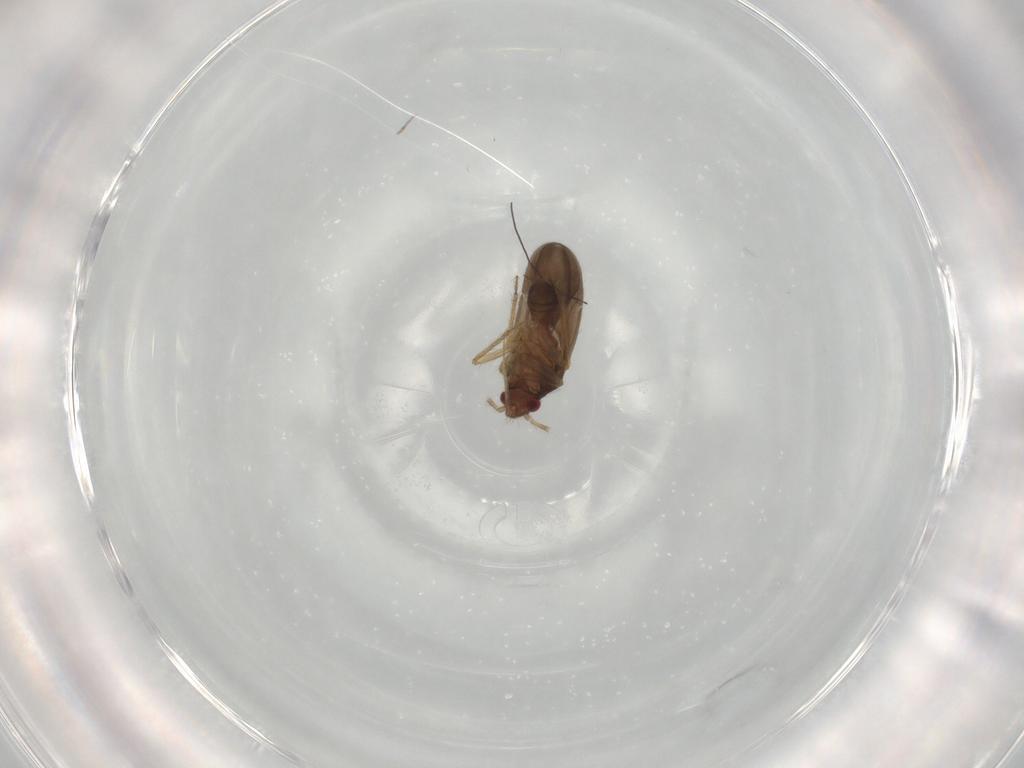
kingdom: Animalia
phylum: Arthropoda
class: Insecta
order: Hemiptera
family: Ceratocombidae
